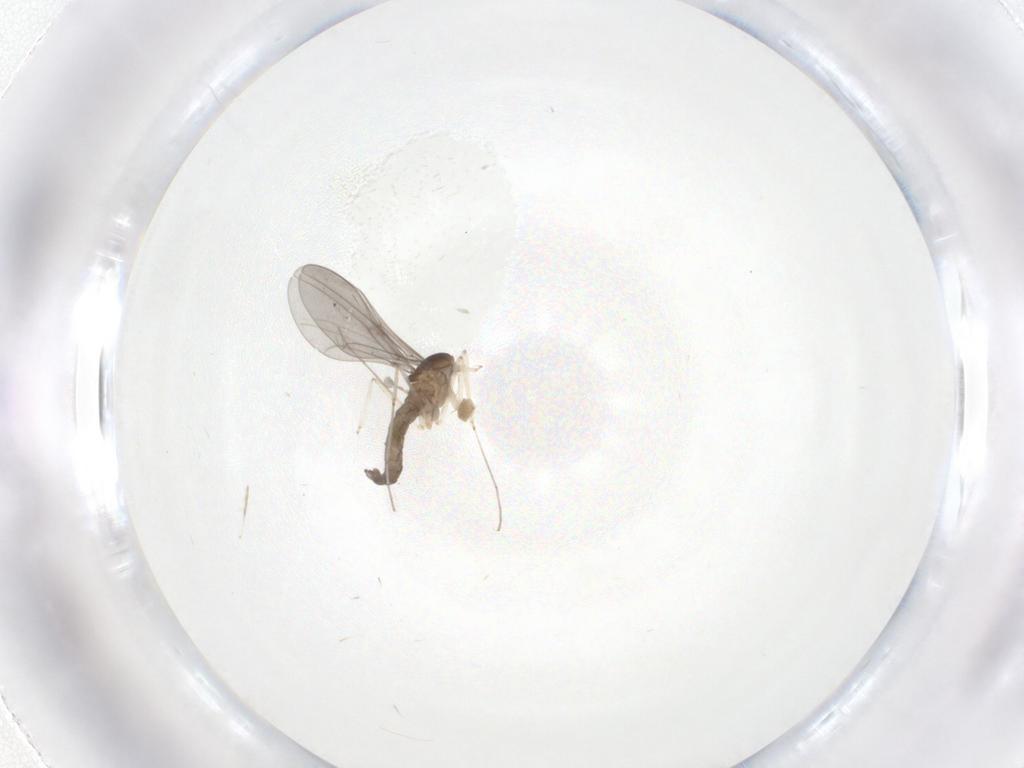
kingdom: Animalia
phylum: Arthropoda
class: Insecta
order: Diptera
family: Cecidomyiidae
